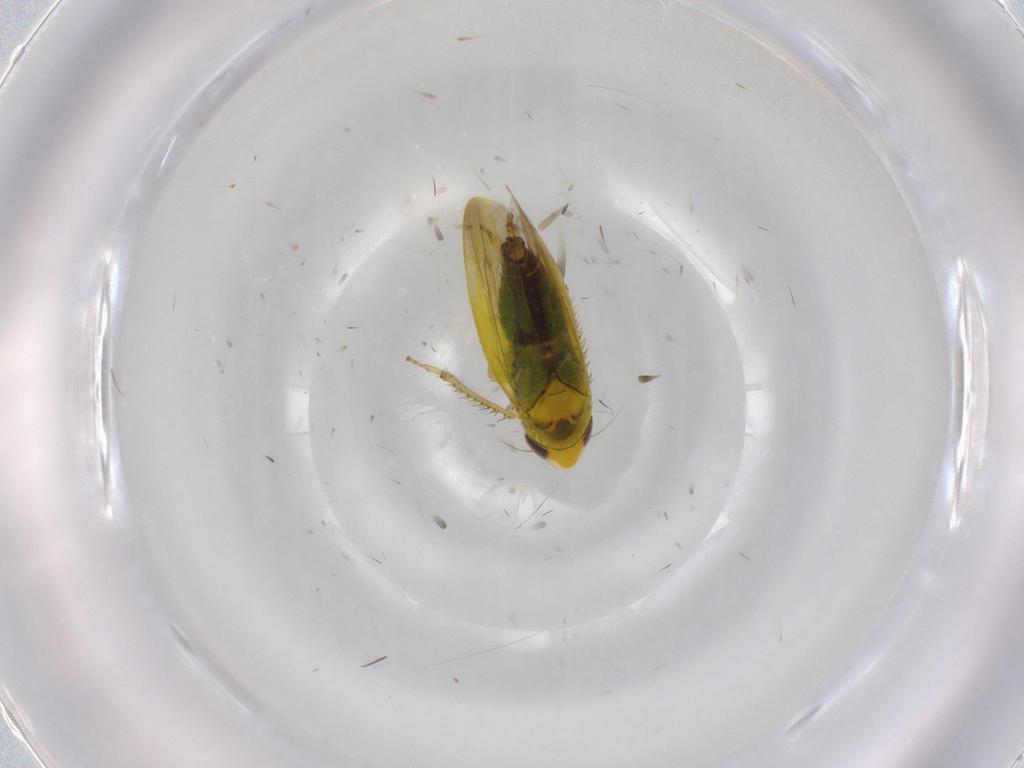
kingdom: Animalia
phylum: Arthropoda
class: Insecta
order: Hemiptera
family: Cicadellidae
